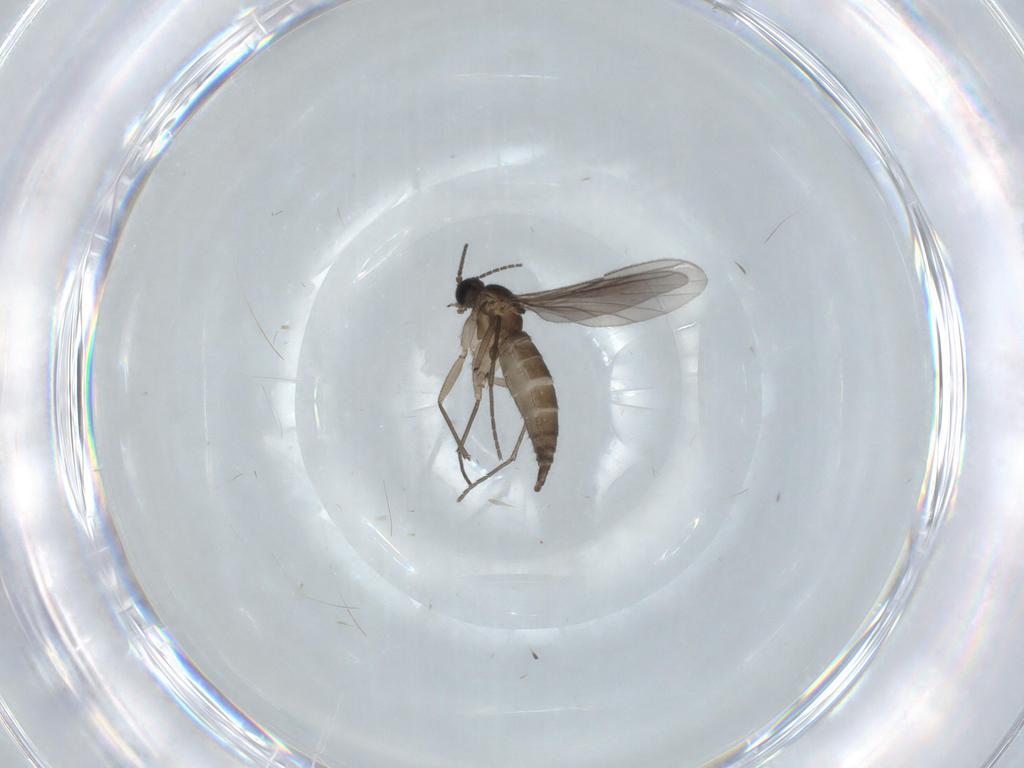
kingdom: Animalia
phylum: Arthropoda
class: Insecta
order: Diptera
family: Sciaridae
